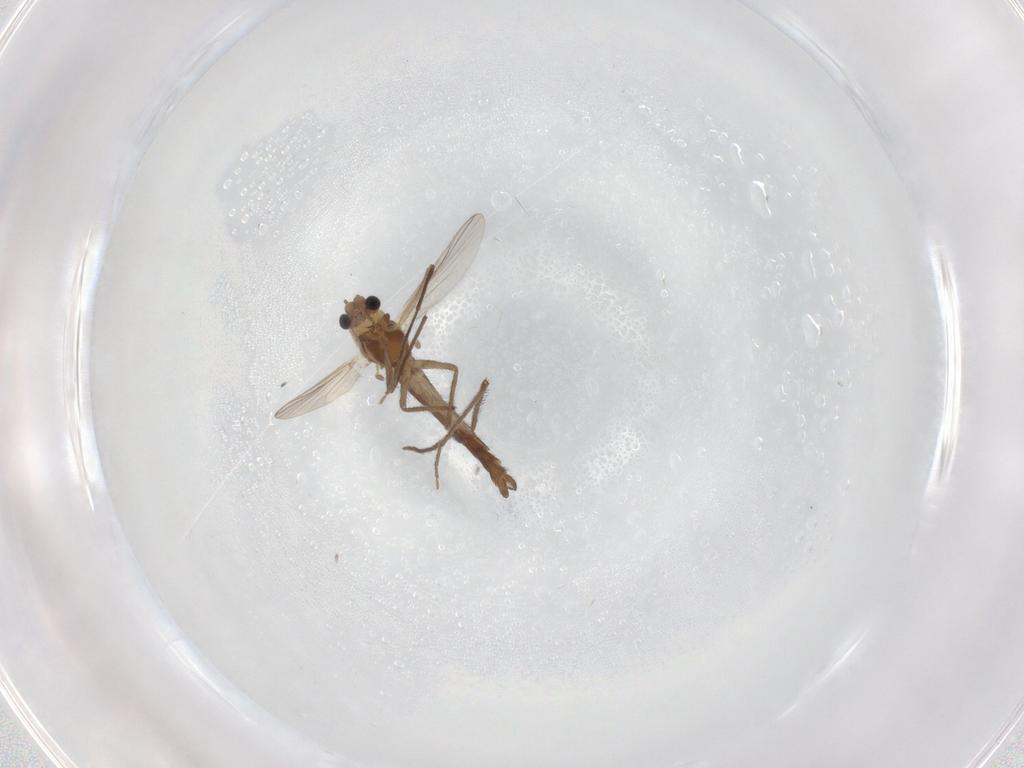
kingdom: Animalia
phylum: Arthropoda
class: Insecta
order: Diptera
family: Chironomidae
